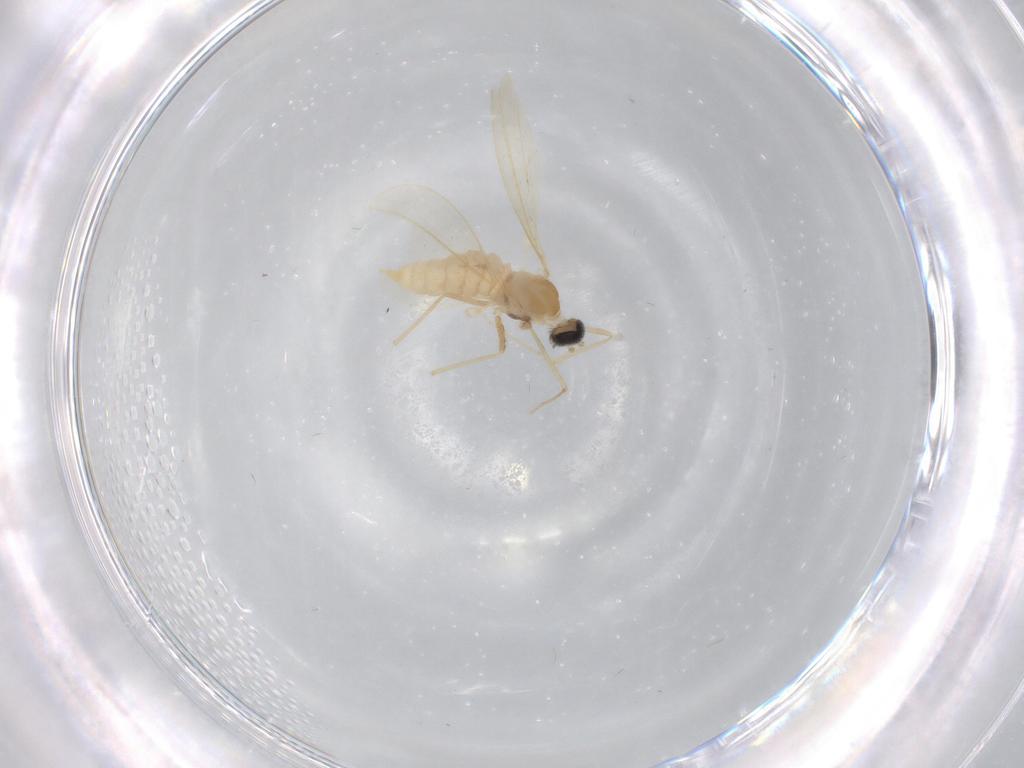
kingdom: Animalia
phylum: Arthropoda
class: Insecta
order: Diptera
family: Cecidomyiidae
